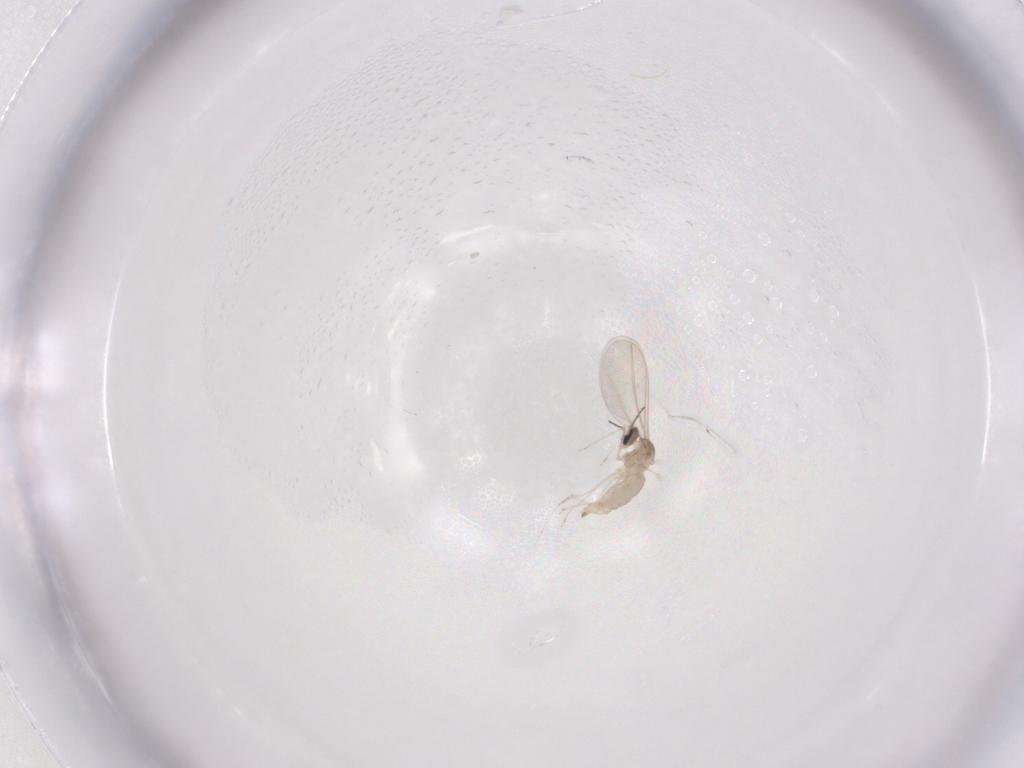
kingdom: Animalia
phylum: Arthropoda
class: Insecta
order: Diptera
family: Cecidomyiidae
